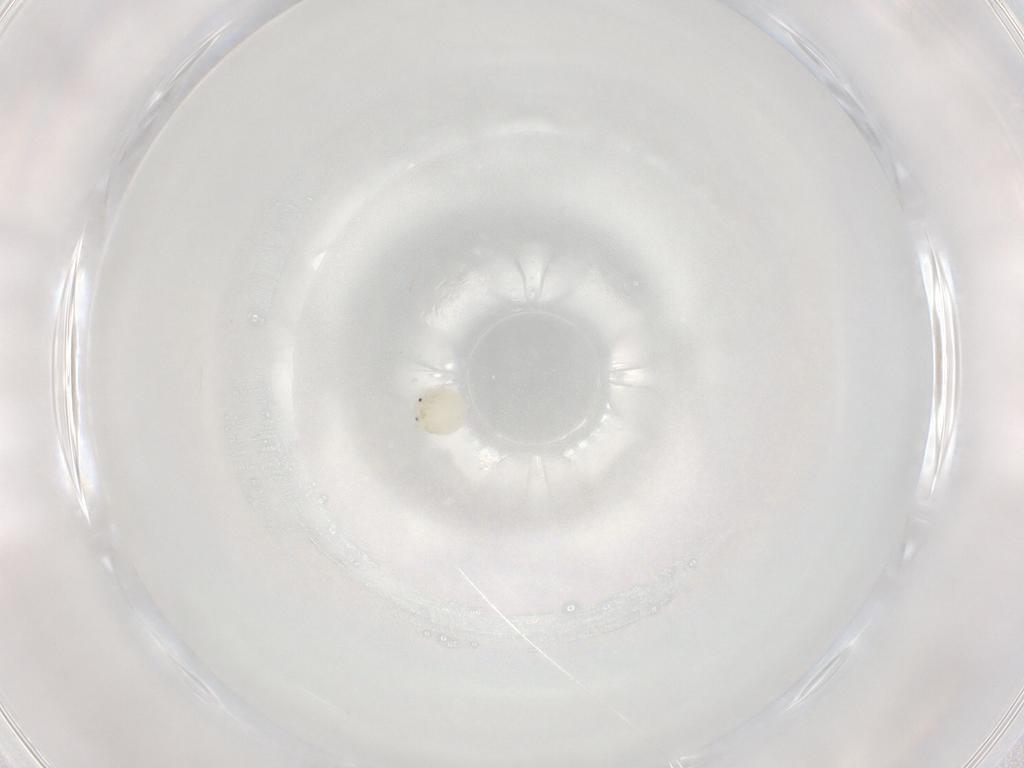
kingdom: Animalia
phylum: Arthropoda
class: Arachnida
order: Trombidiformes
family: Arrenuridae
